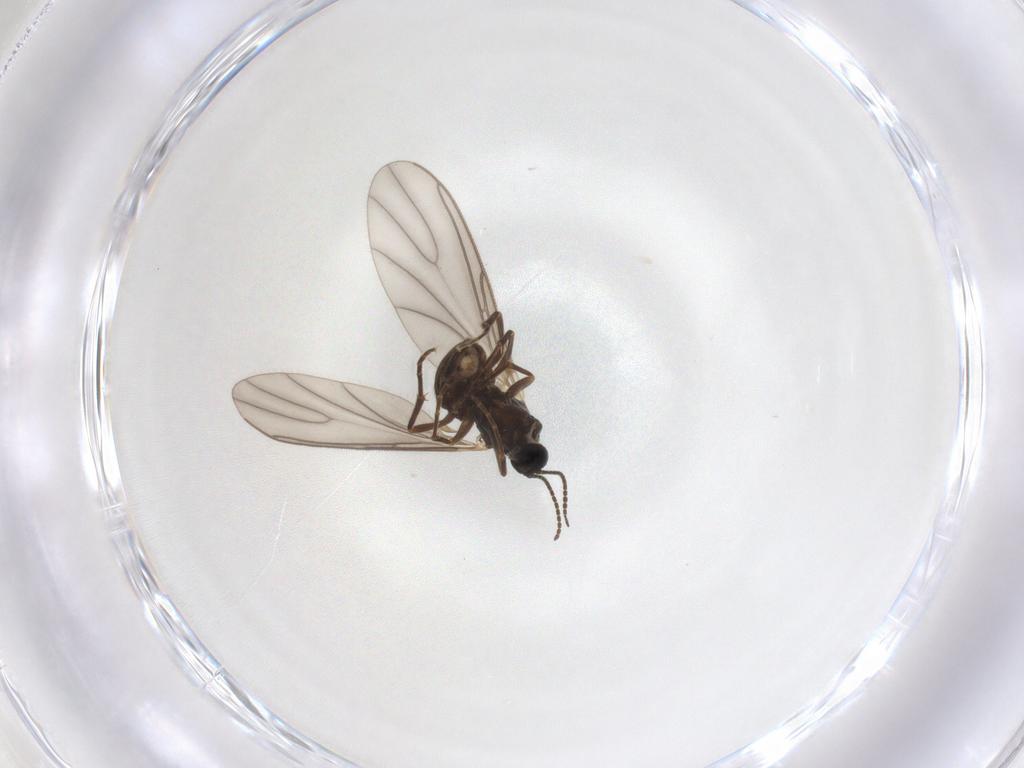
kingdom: Animalia
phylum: Arthropoda
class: Insecta
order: Diptera
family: Sciaridae
